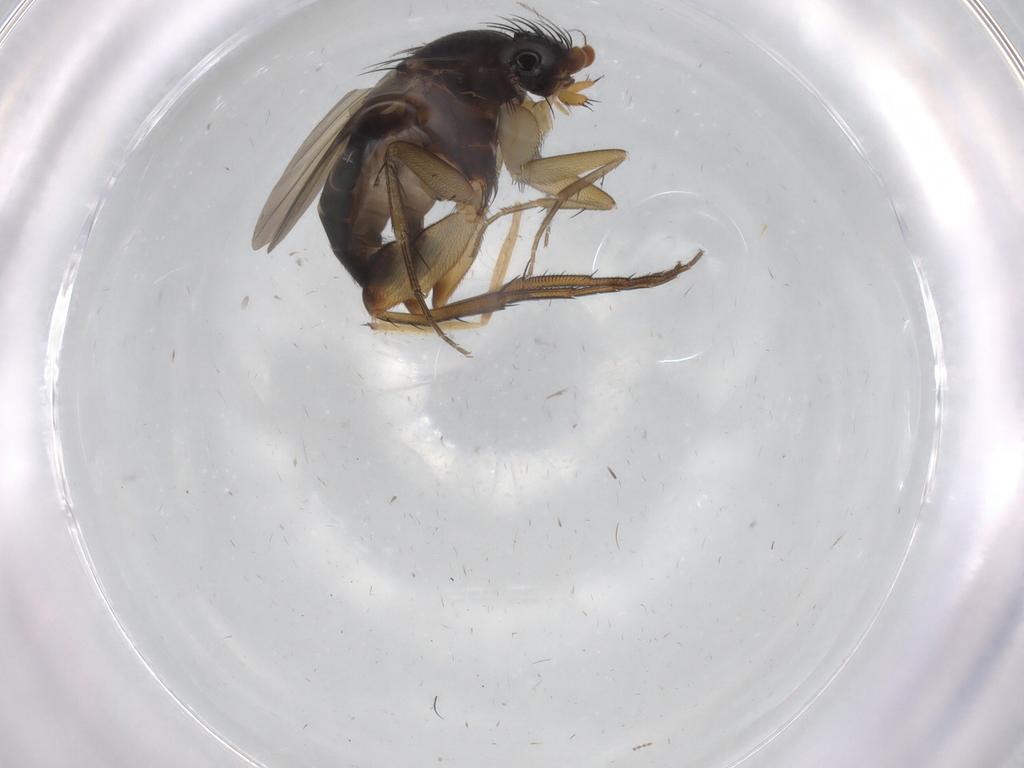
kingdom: Animalia
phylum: Arthropoda
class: Insecta
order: Diptera
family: Phoridae
